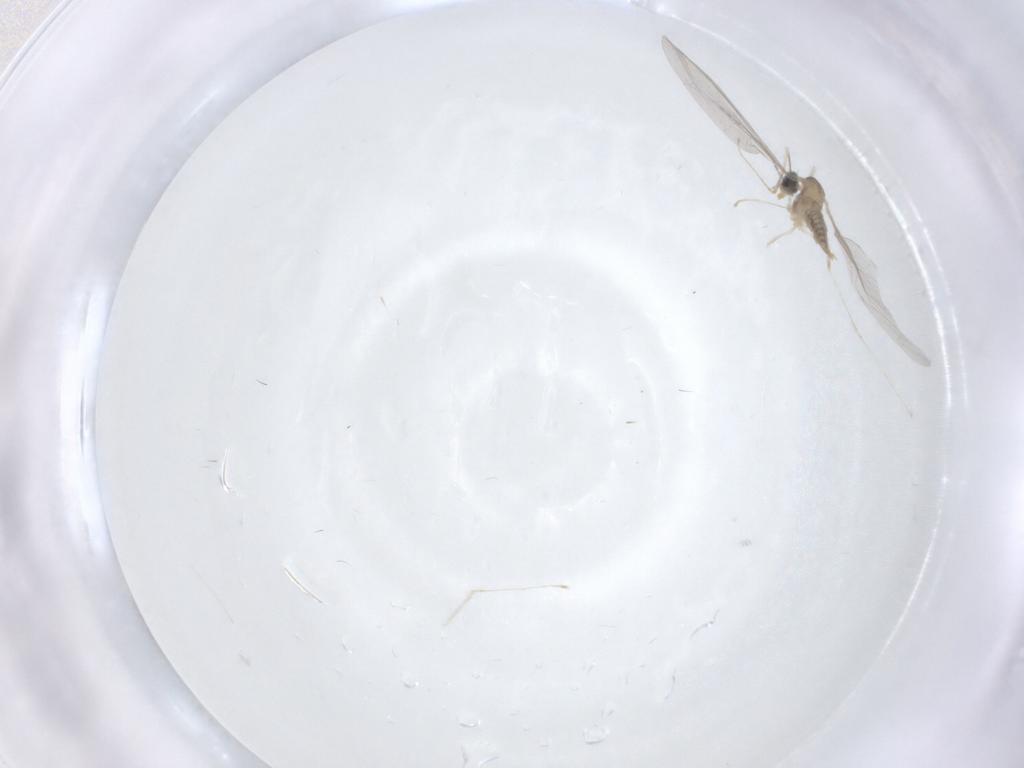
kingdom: Animalia
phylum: Arthropoda
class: Insecta
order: Diptera
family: Cecidomyiidae
